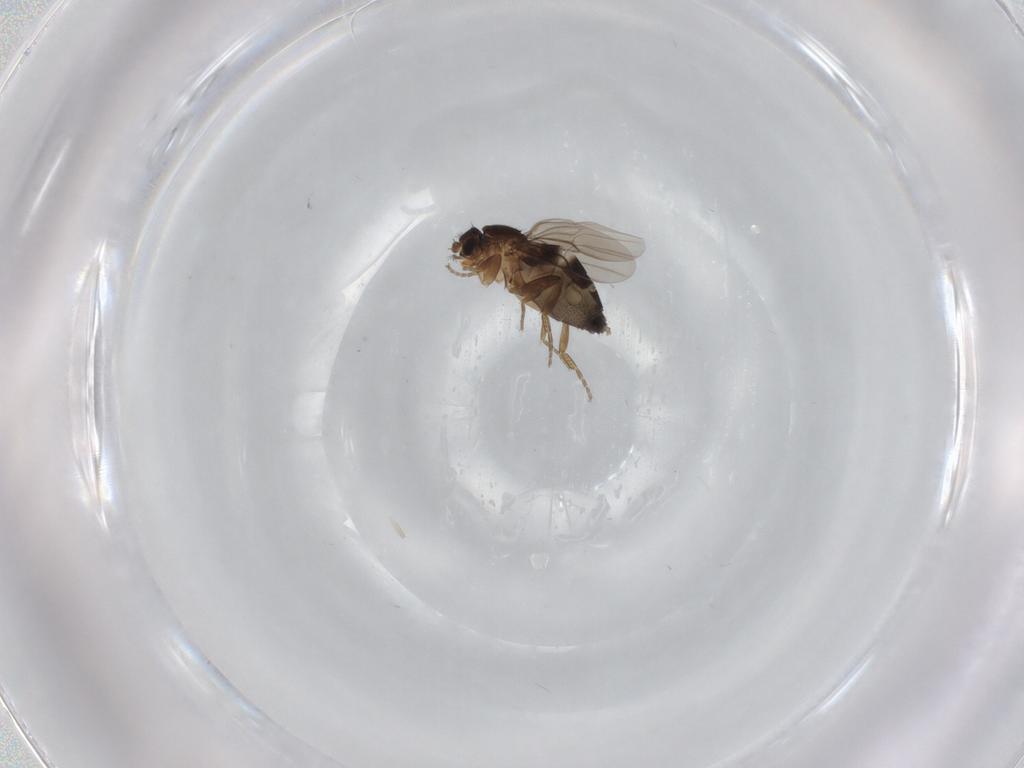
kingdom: Animalia
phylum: Arthropoda
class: Insecta
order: Diptera
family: Phoridae
